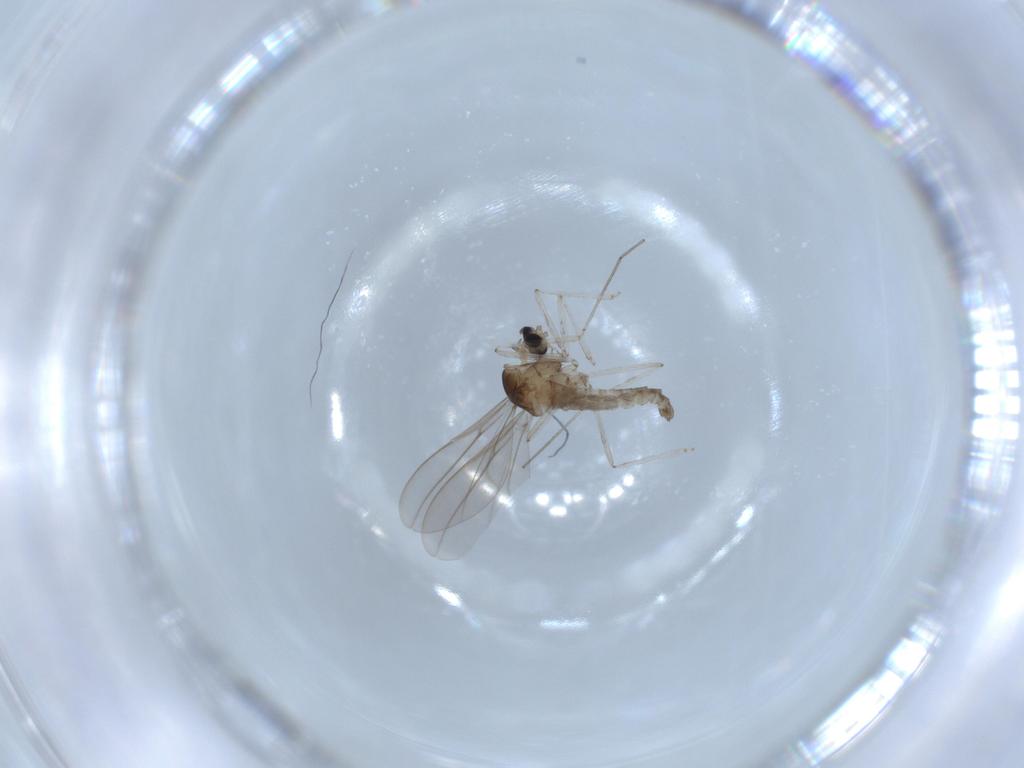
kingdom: Animalia
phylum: Arthropoda
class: Insecta
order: Diptera
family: Cecidomyiidae
